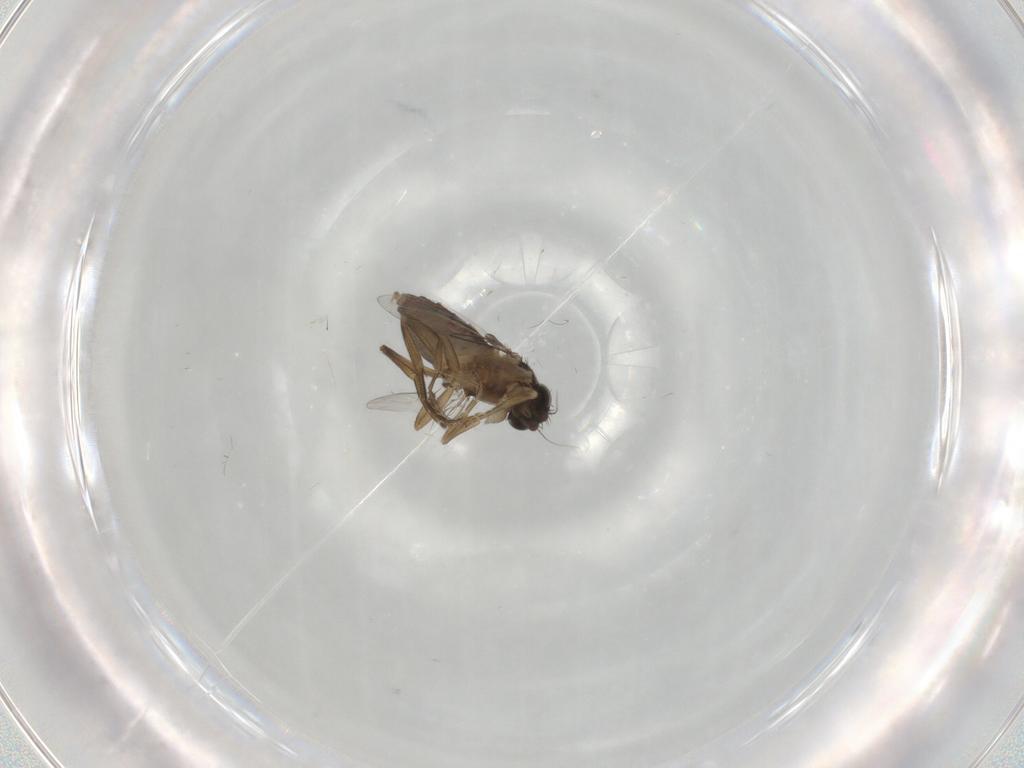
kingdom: Animalia
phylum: Arthropoda
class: Insecta
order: Diptera
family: Phoridae
